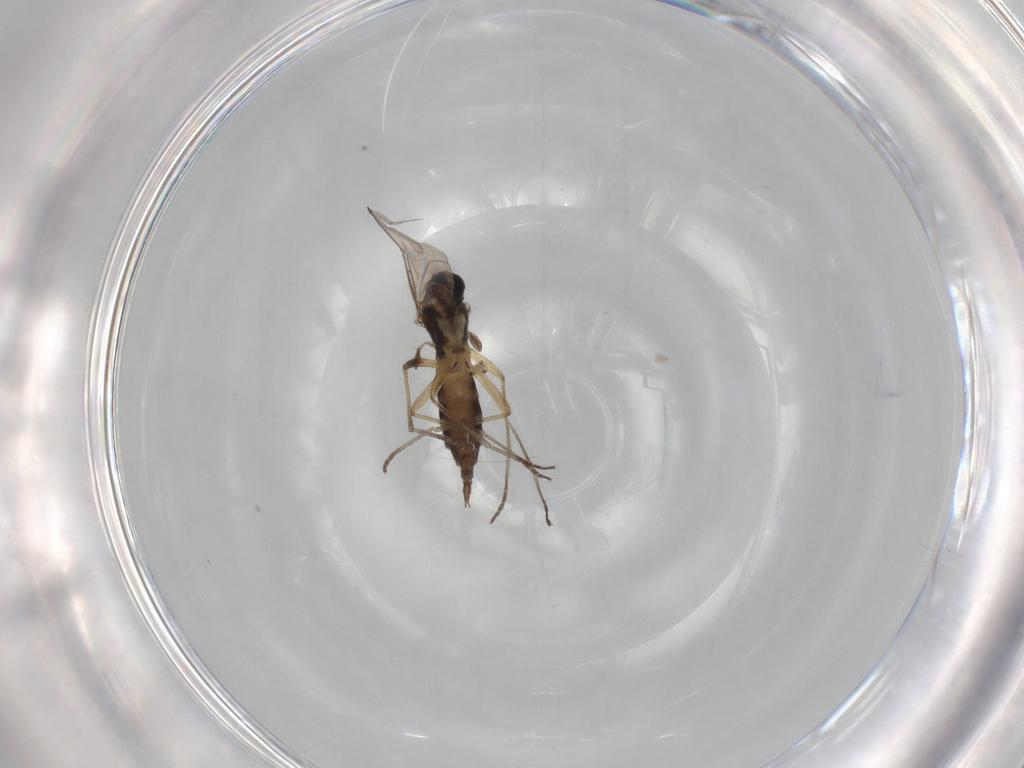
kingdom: Animalia
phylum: Arthropoda
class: Insecta
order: Diptera
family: Sciaridae
